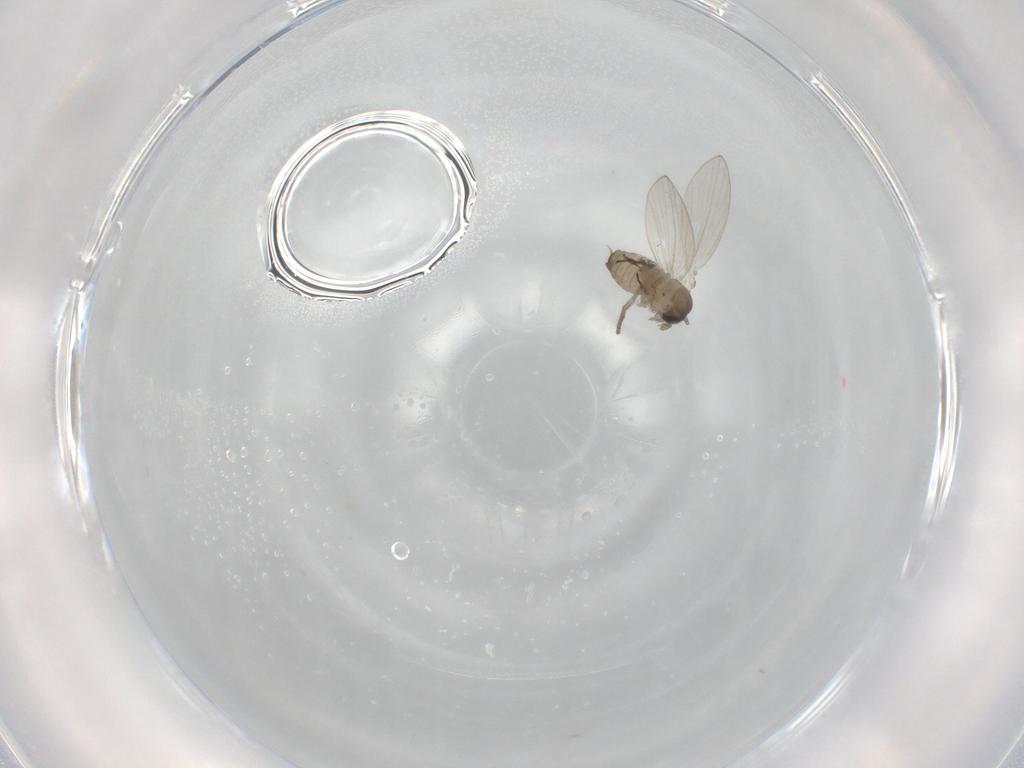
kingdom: Animalia
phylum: Arthropoda
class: Insecta
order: Diptera
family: Psychodidae
